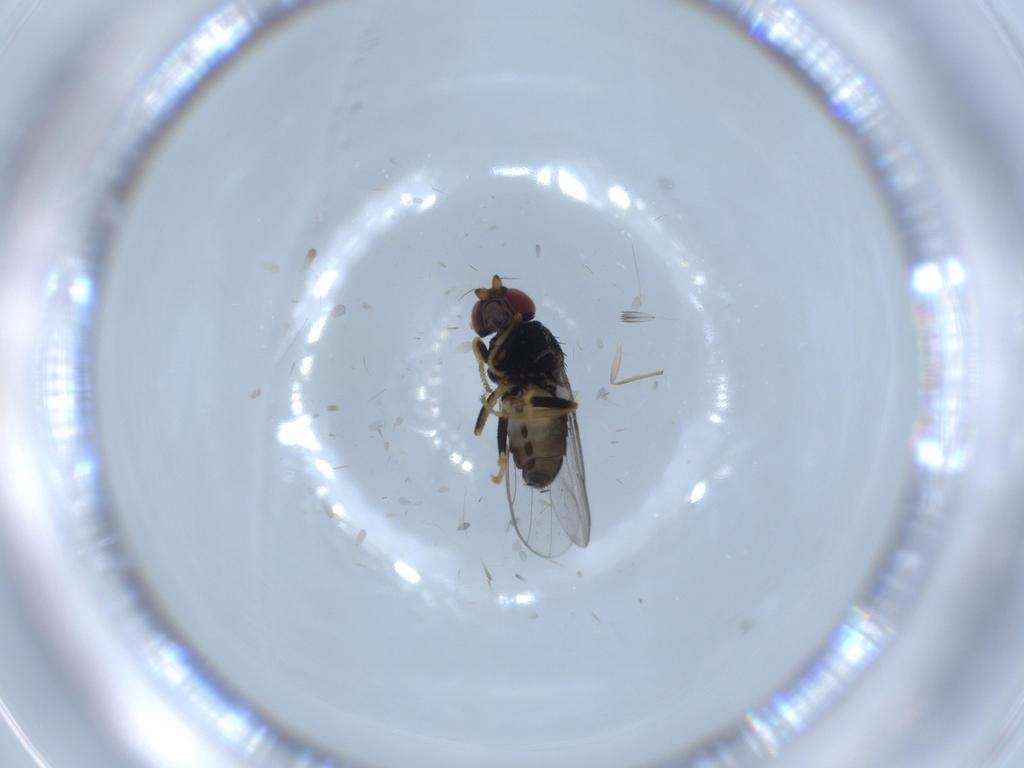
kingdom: Animalia
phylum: Arthropoda
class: Insecta
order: Diptera
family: Chloropidae
